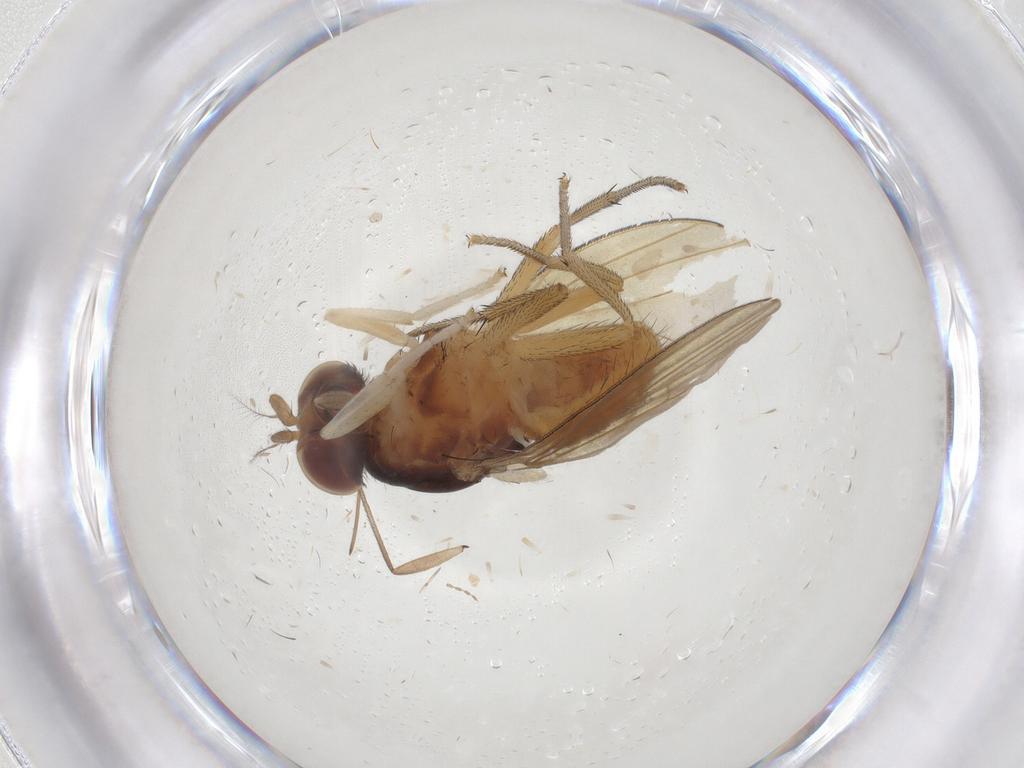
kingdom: Animalia
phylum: Arthropoda
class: Insecta
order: Diptera
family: Lauxaniidae
